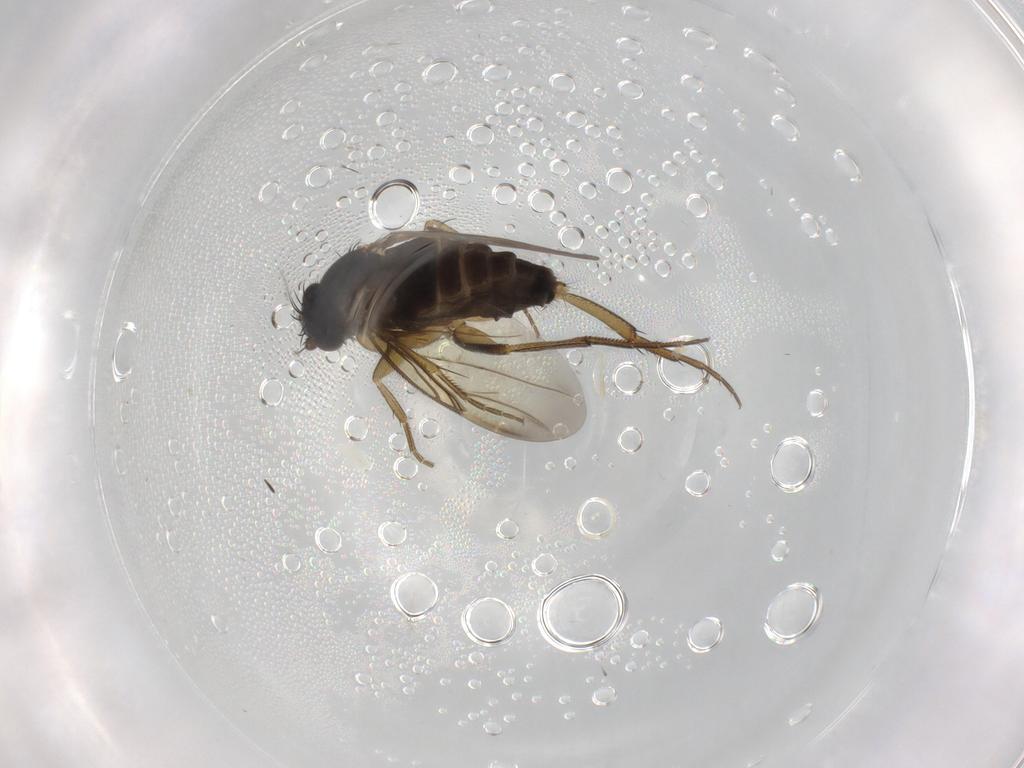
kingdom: Animalia
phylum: Arthropoda
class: Insecta
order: Diptera
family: Phoridae
